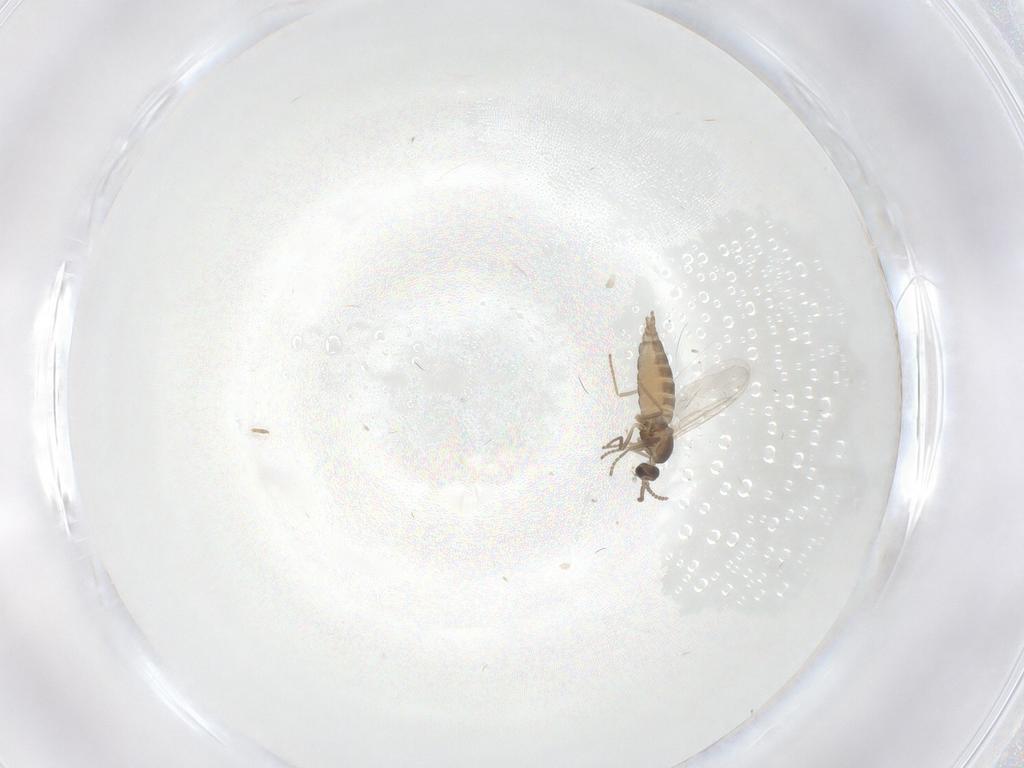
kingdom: Animalia
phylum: Arthropoda
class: Insecta
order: Diptera
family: Cecidomyiidae
